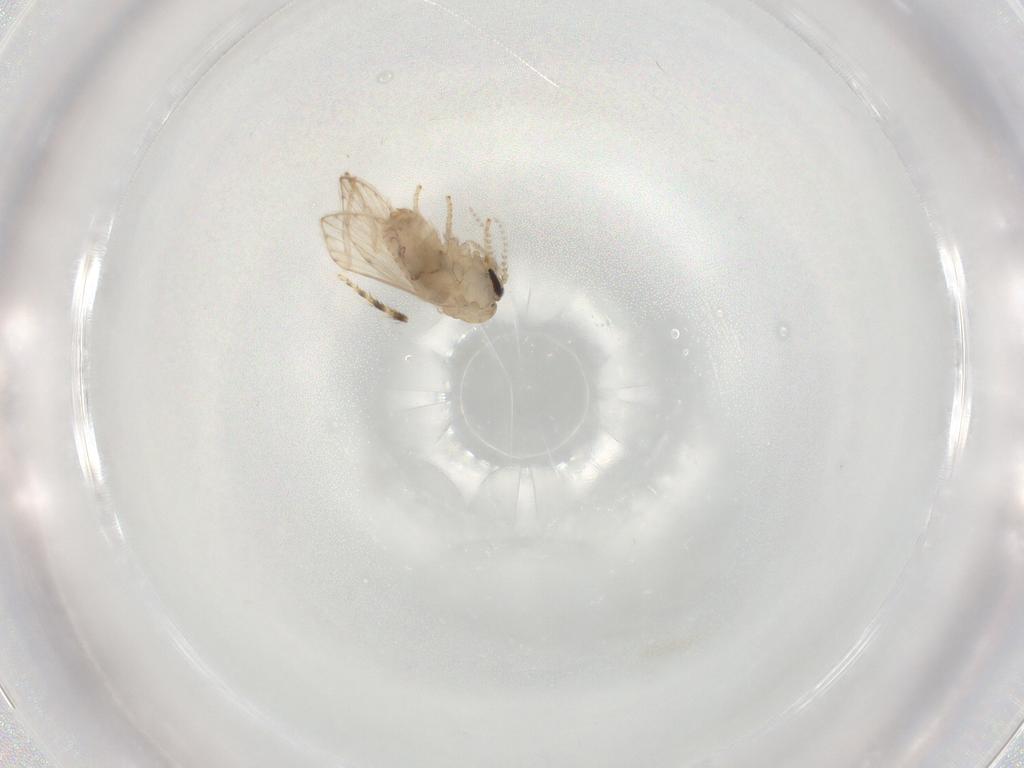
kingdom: Animalia
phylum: Arthropoda
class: Insecta
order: Diptera
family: Psychodidae
